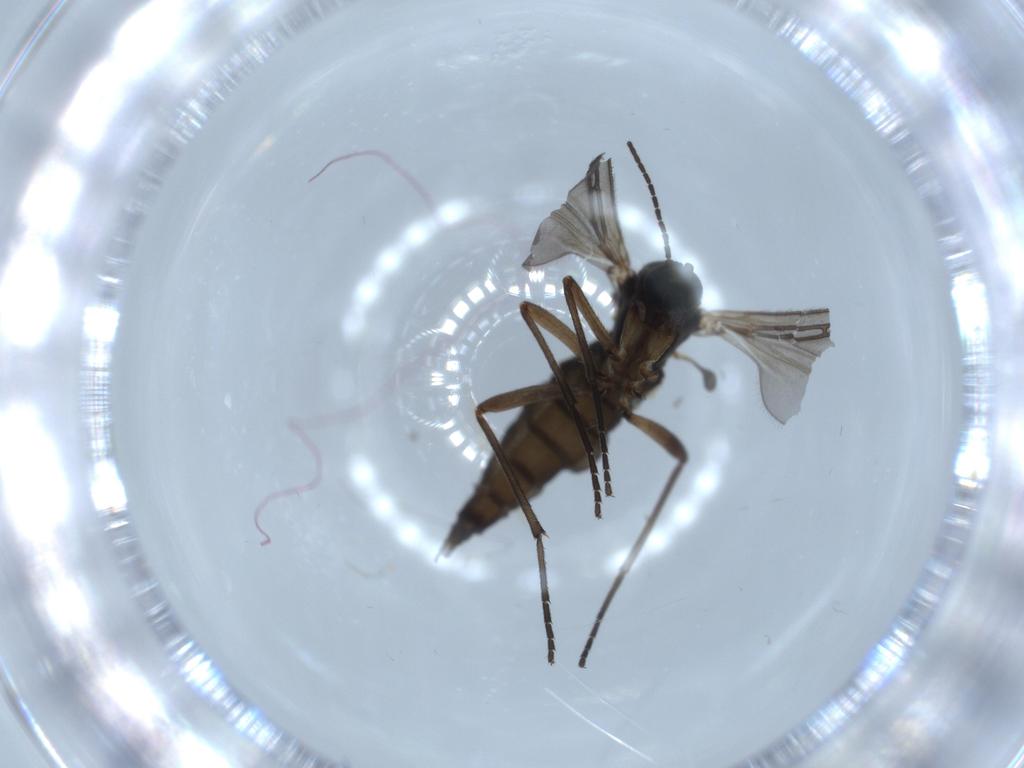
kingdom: Animalia
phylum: Arthropoda
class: Insecta
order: Diptera
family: Sciaridae
